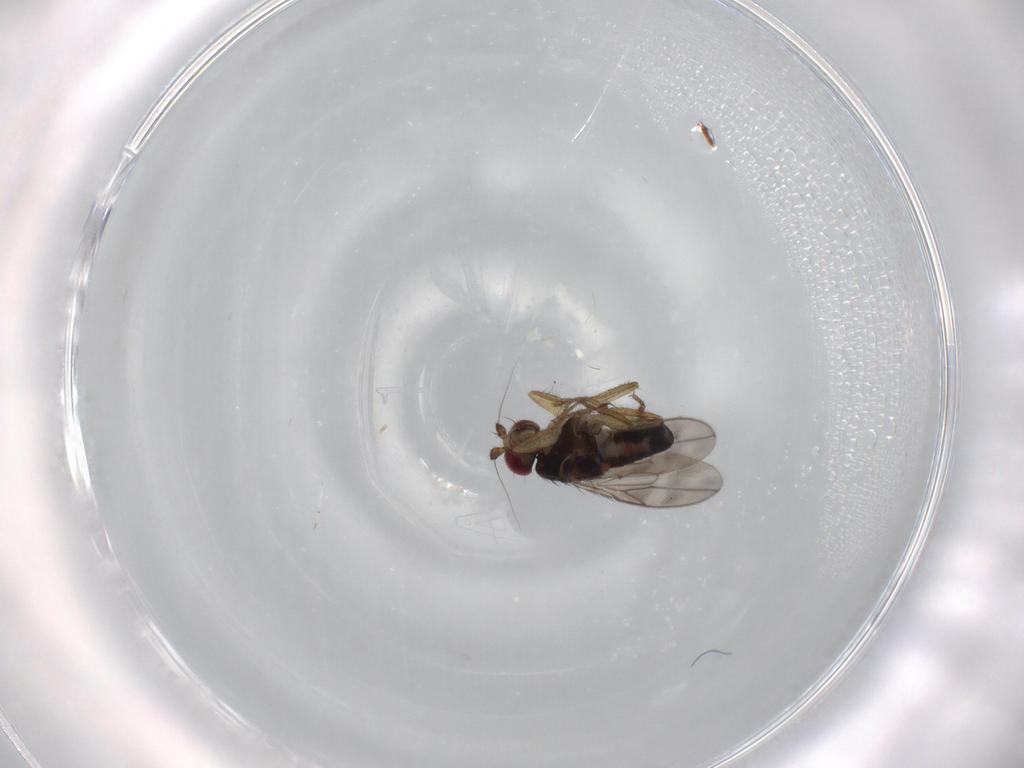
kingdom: Animalia
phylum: Arthropoda
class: Insecta
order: Diptera
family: Sphaeroceridae
